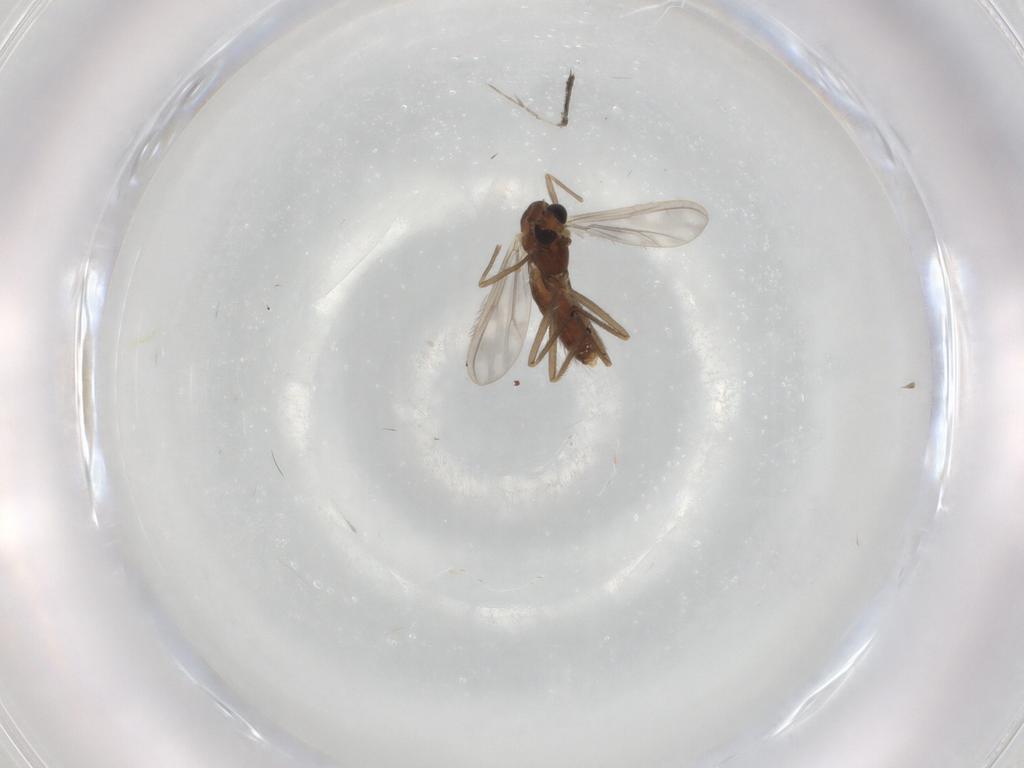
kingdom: Animalia
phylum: Arthropoda
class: Insecta
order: Diptera
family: Chironomidae
